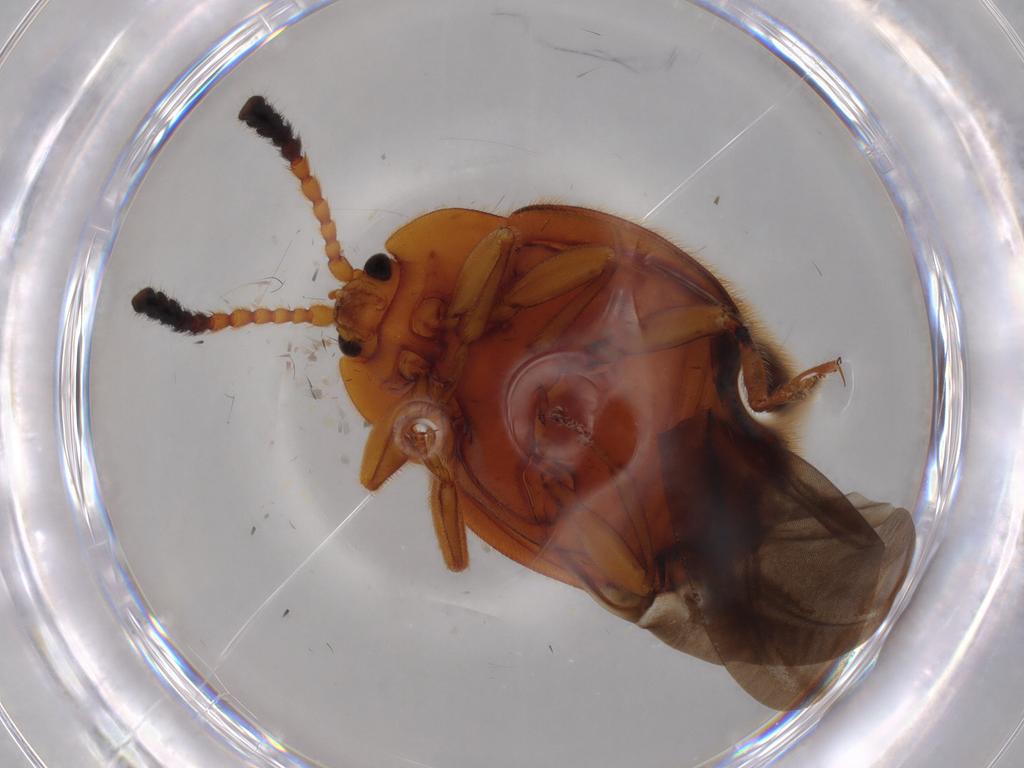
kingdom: Animalia
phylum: Arthropoda
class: Insecta
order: Coleoptera
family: Endomychidae
